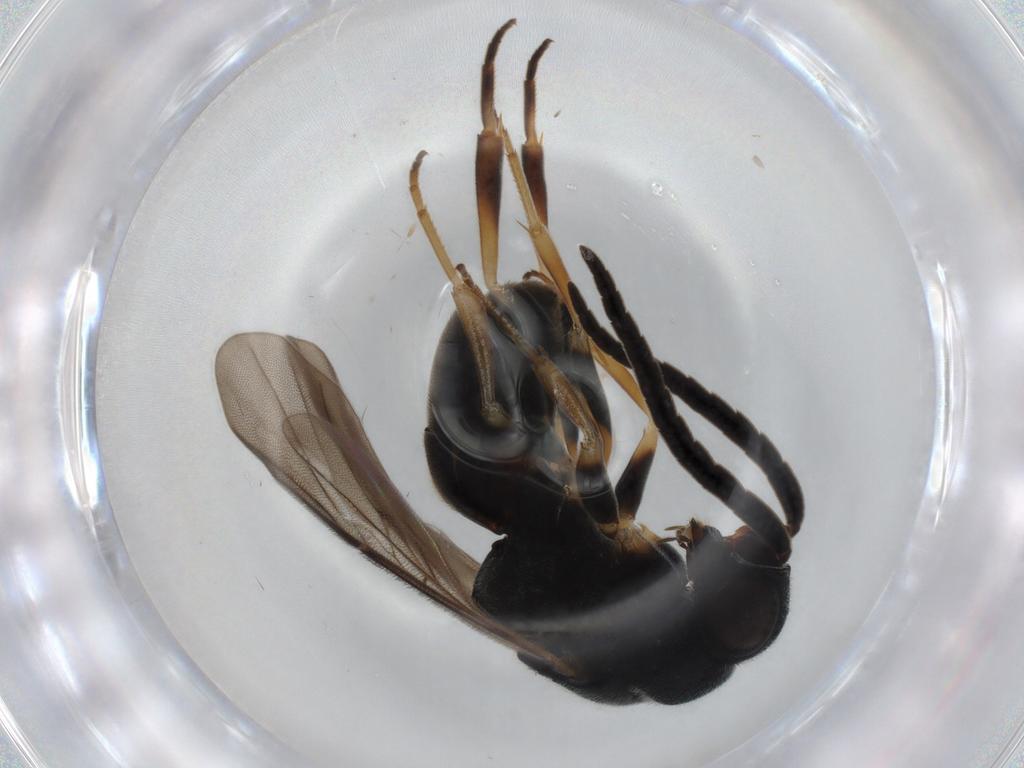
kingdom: Animalia
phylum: Arthropoda
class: Insecta
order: Hymenoptera
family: Chrysididae
